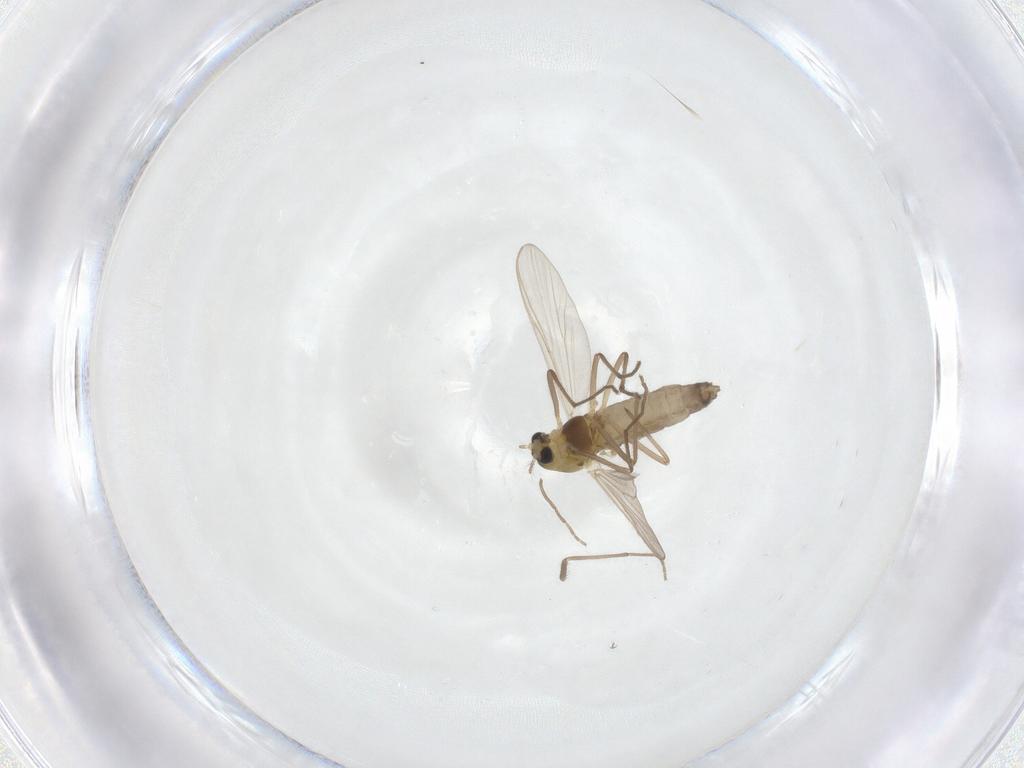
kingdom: Animalia
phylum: Arthropoda
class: Insecta
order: Diptera
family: Chironomidae
